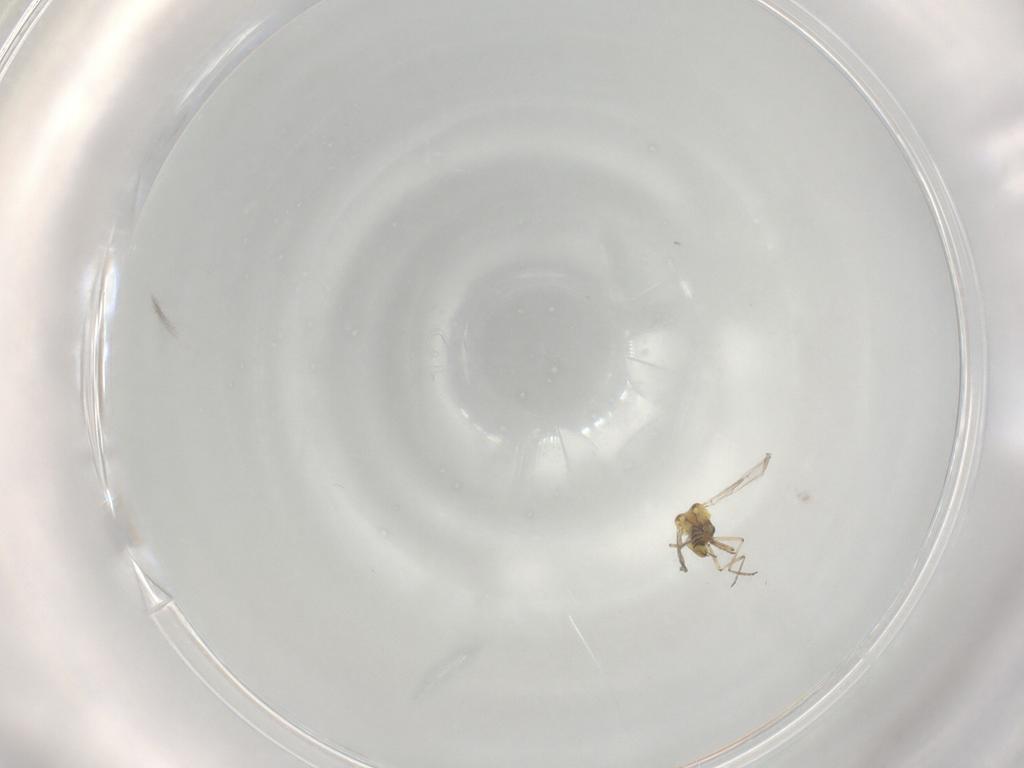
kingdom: Animalia
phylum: Arthropoda
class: Insecta
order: Diptera
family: Ceratopogonidae
